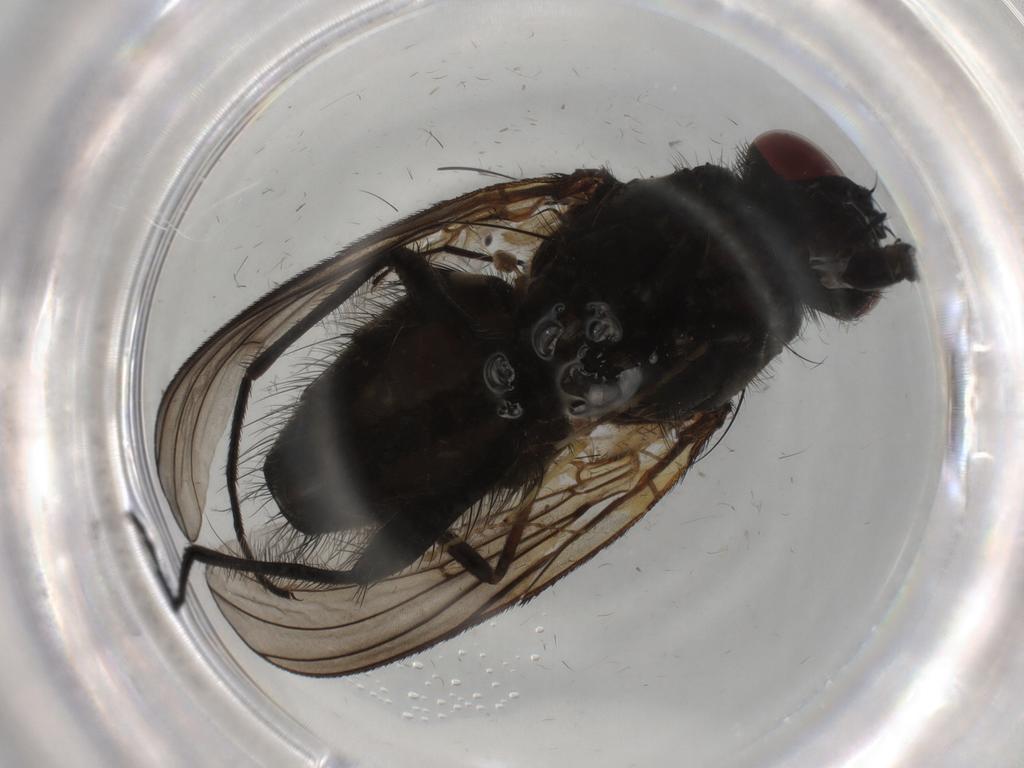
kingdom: Animalia
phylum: Arthropoda
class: Insecta
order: Diptera
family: Muscidae
